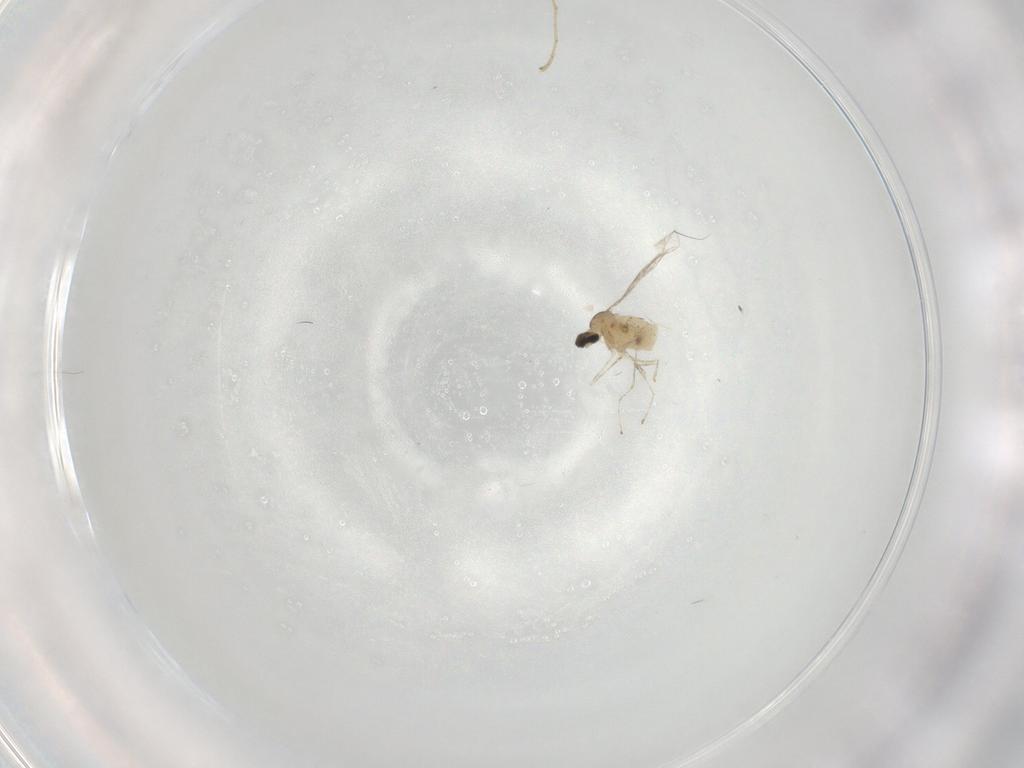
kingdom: Animalia
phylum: Arthropoda
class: Insecta
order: Diptera
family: Limoniidae
